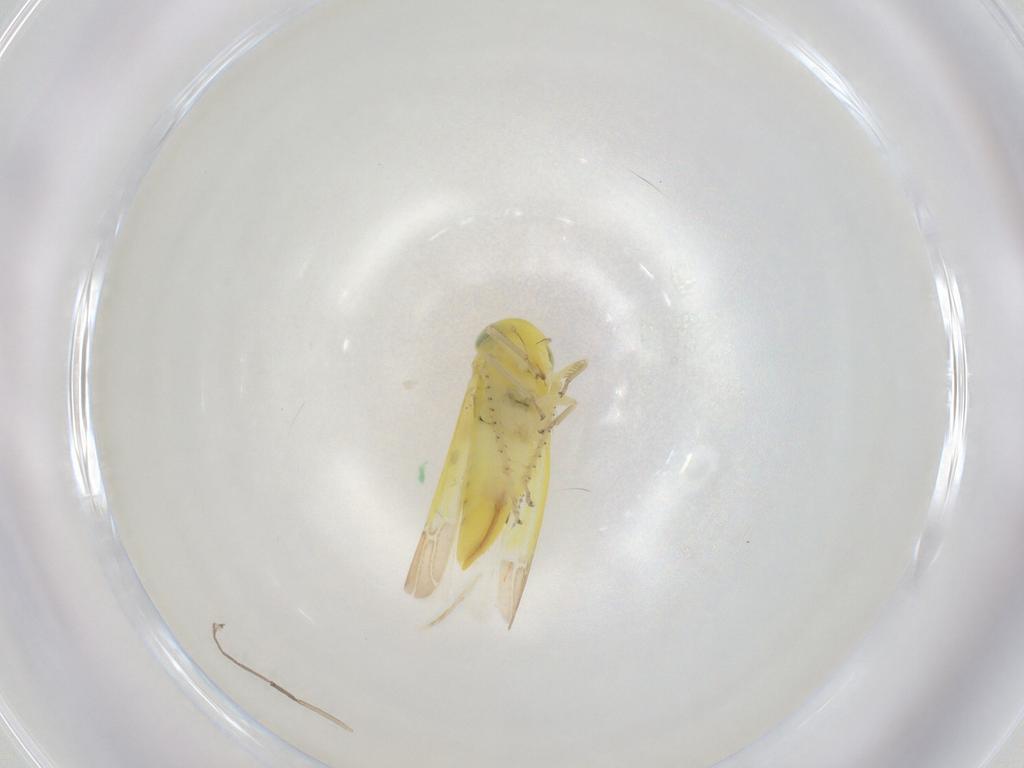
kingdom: Animalia
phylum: Arthropoda
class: Insecta
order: Hemiptera
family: Cicadellidae
